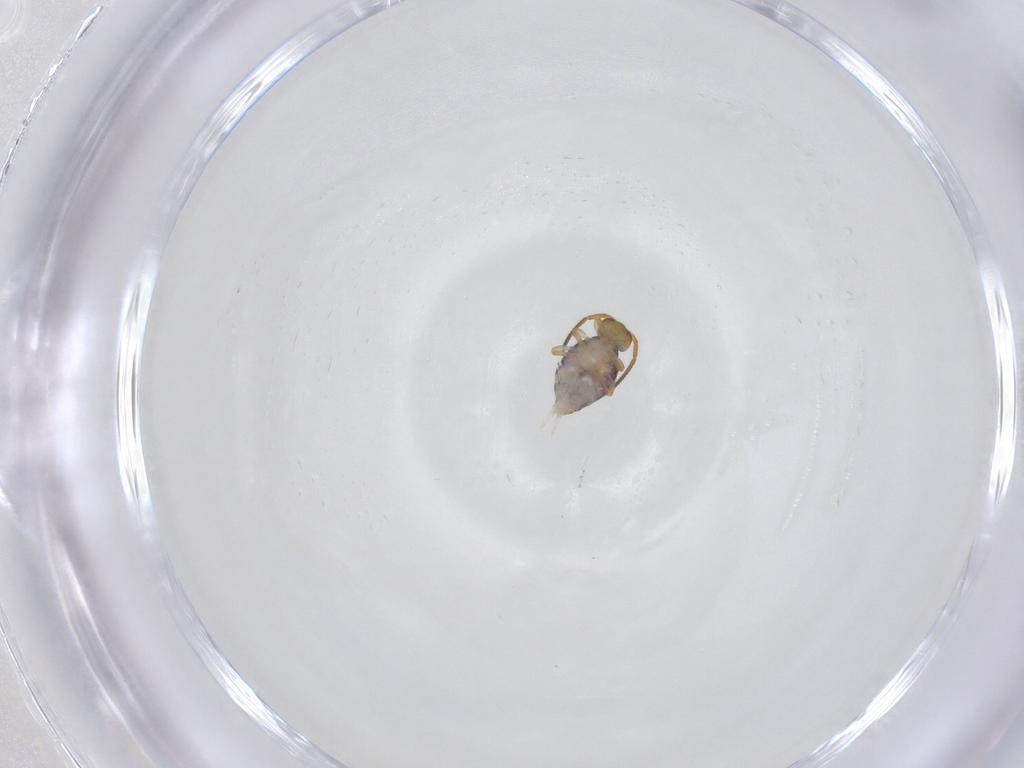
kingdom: Animalia
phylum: Arthropoda
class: Collembola
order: Symphypleona
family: Katiannidae
